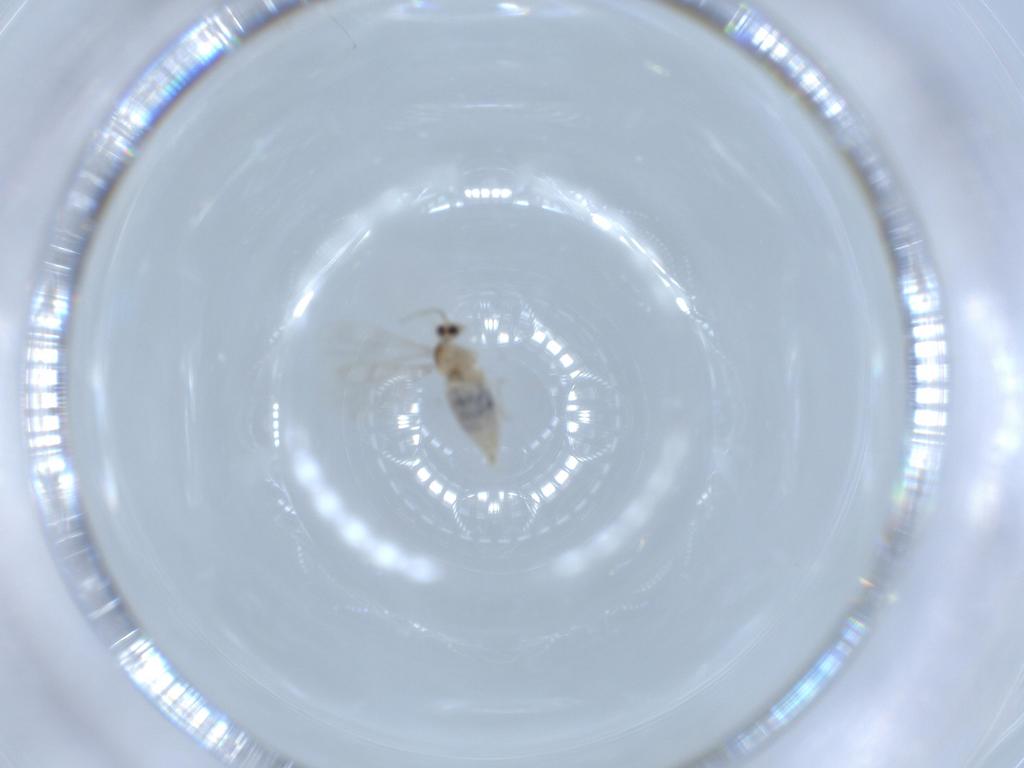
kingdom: Animalia
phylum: Arthropoda
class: Insecta
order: Diptera
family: Cecidomyiidae
